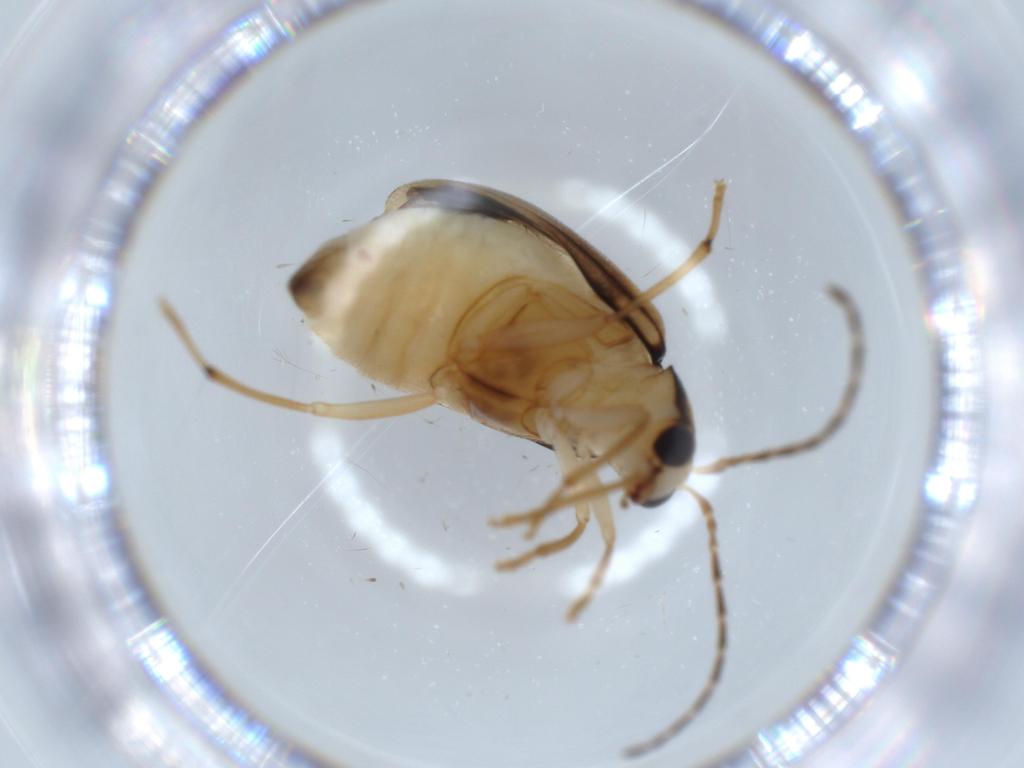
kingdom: Animalia
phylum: Arthropoda
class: Insecta
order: Coleoptera
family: Chrysomelidae
